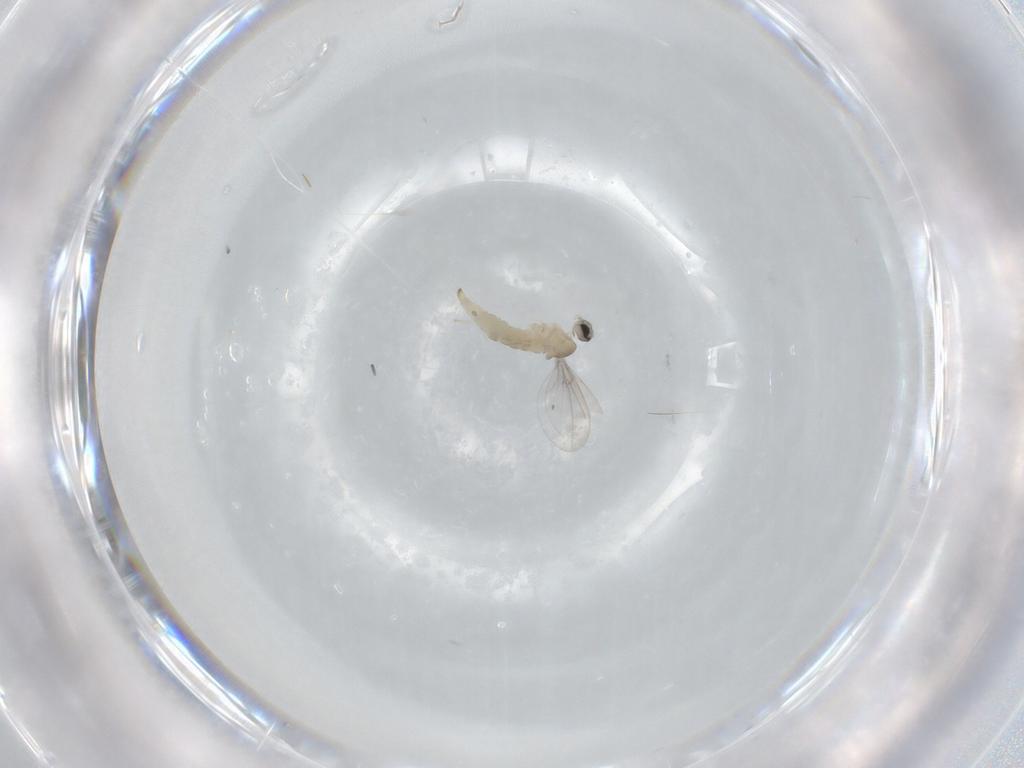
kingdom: Animalia
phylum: Arthropoda
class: Insecta
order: Diptera
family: Cecidomyiidae
